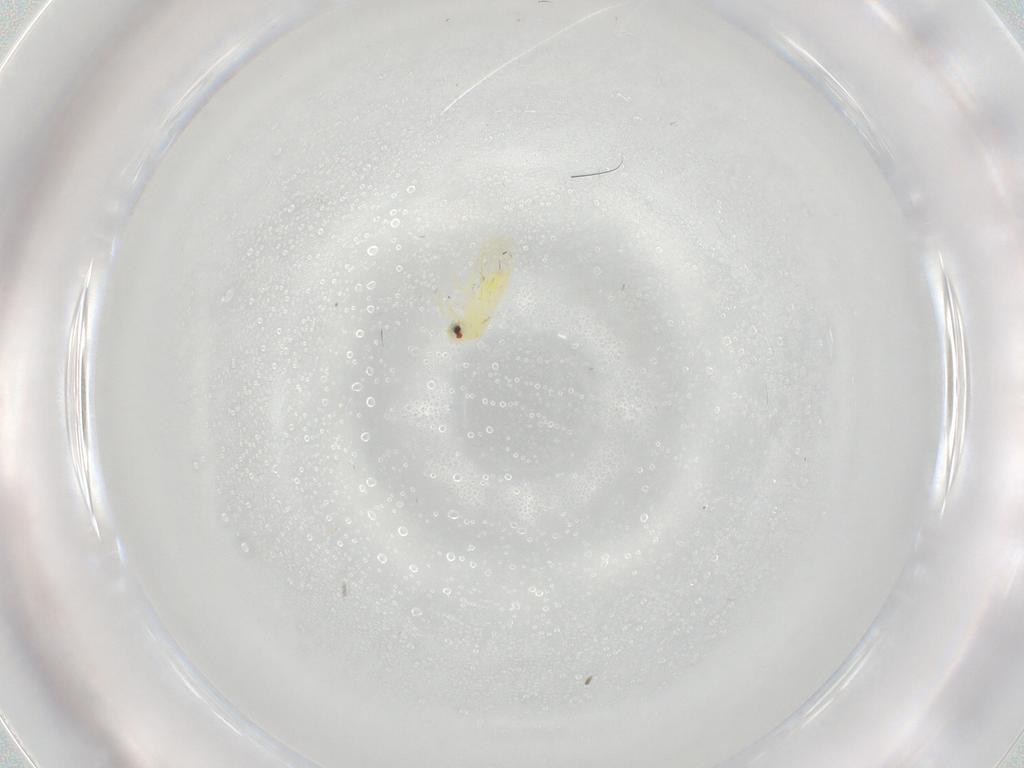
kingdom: Animalia
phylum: Arthropoda
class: Insecta
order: Hemiptera
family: Aleyrodidae
